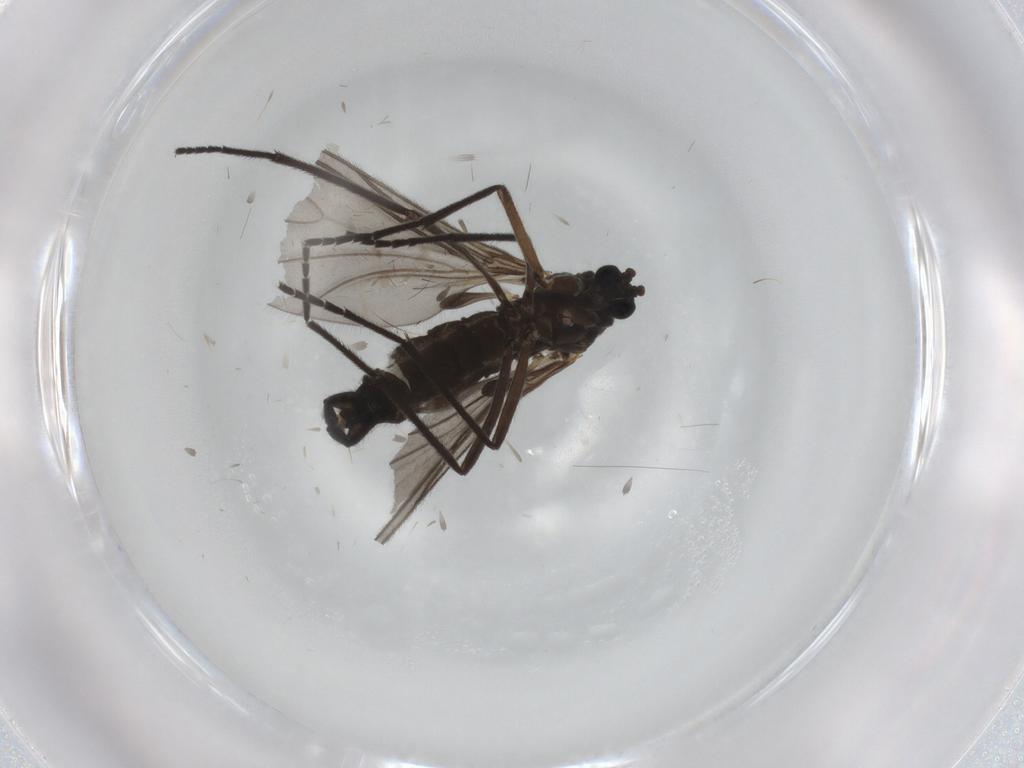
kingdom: Animalia
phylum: Arthropoda
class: Insecta
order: Diptera
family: Sciaridae
